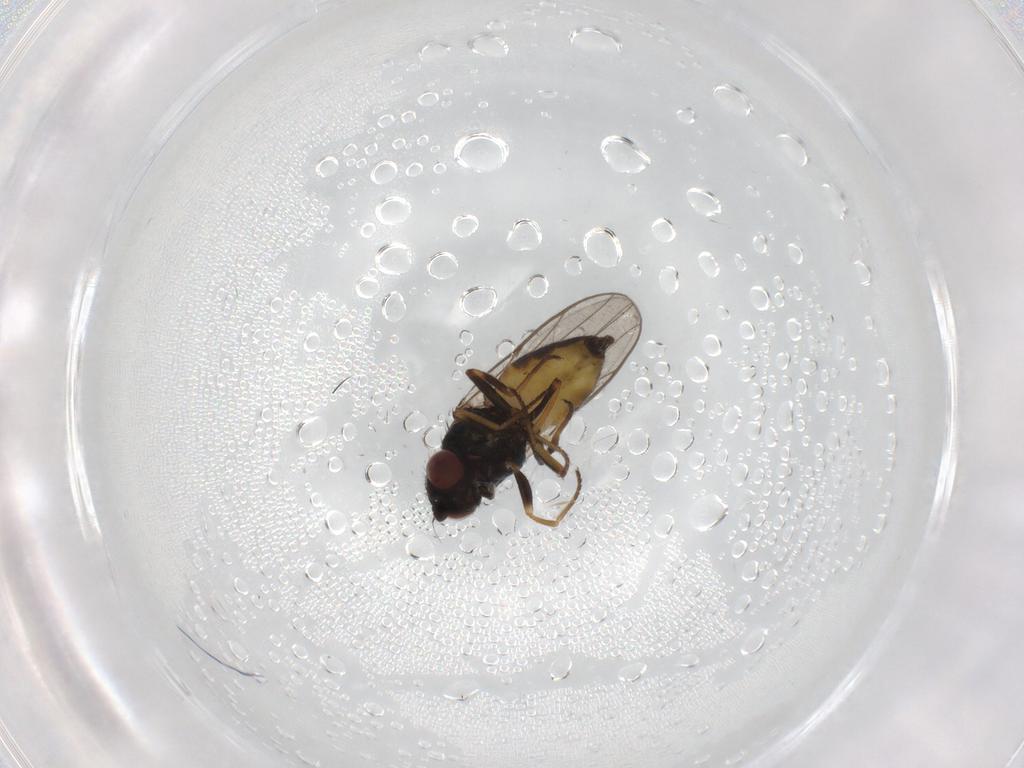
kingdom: Animalia
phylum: Arthropoda
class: Insecta
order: Diptera
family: Chloropidae
